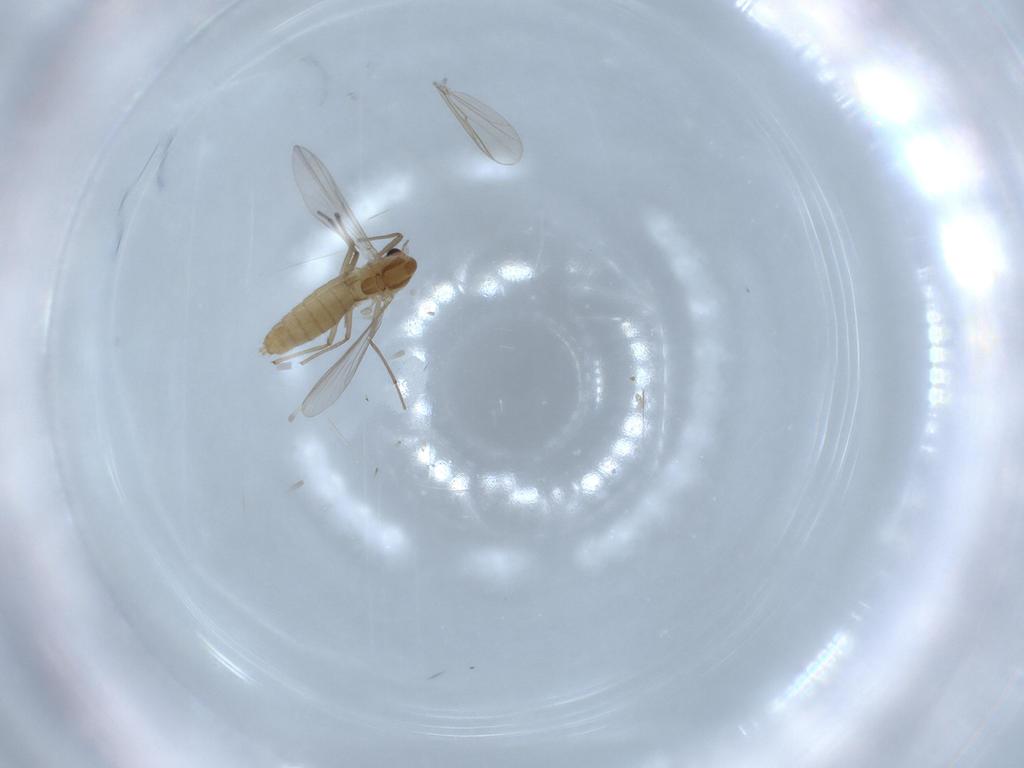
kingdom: Animalia
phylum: Arthropoda
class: Insecta
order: Diptera
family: Chironomidae
